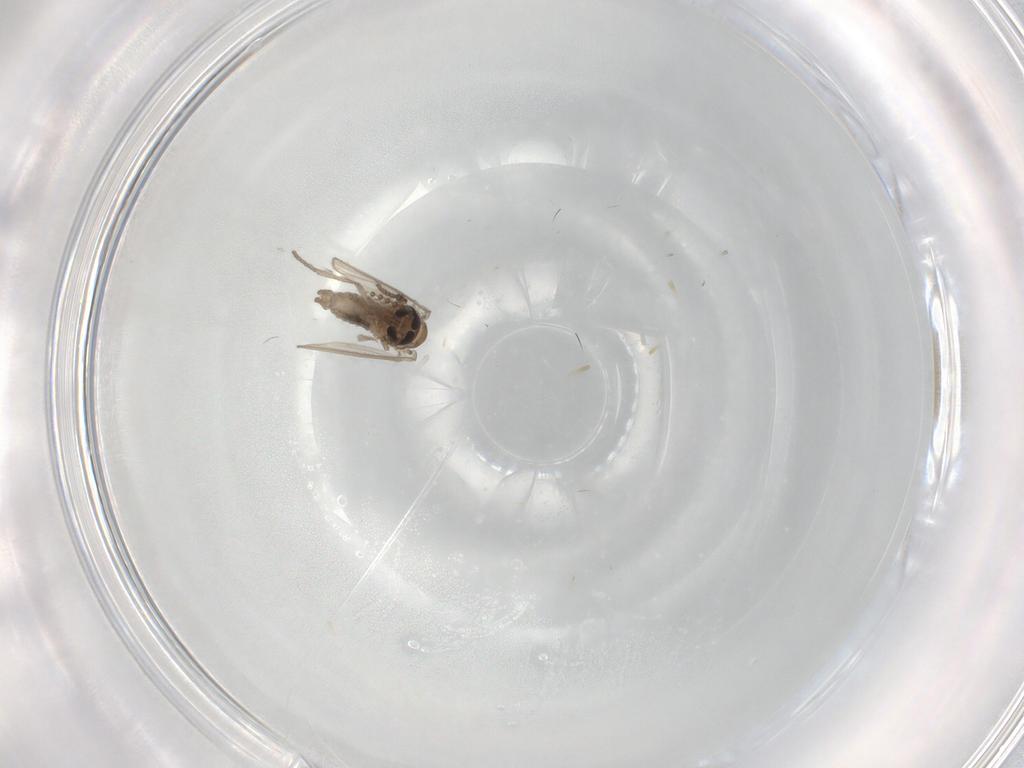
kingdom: Animalia
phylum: Arthropoda
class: Insecta
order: Diptera
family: Psychodidae
